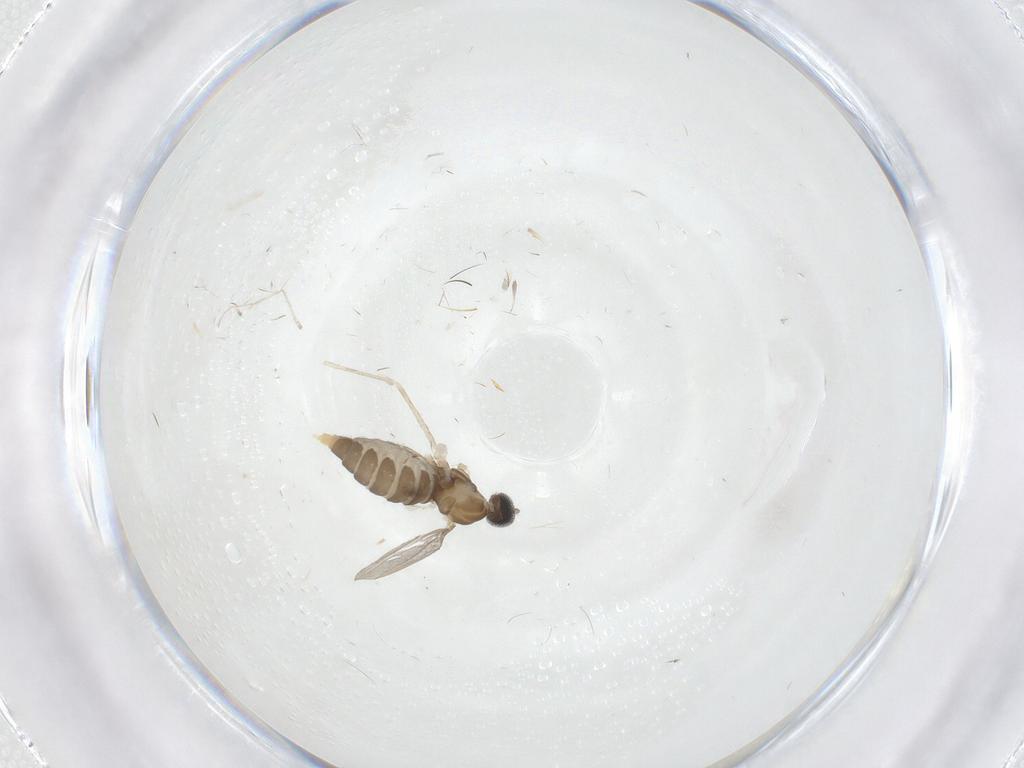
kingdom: Animalia
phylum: Arthropoda
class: Insecta
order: Diptera
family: Cecidomyiidae
